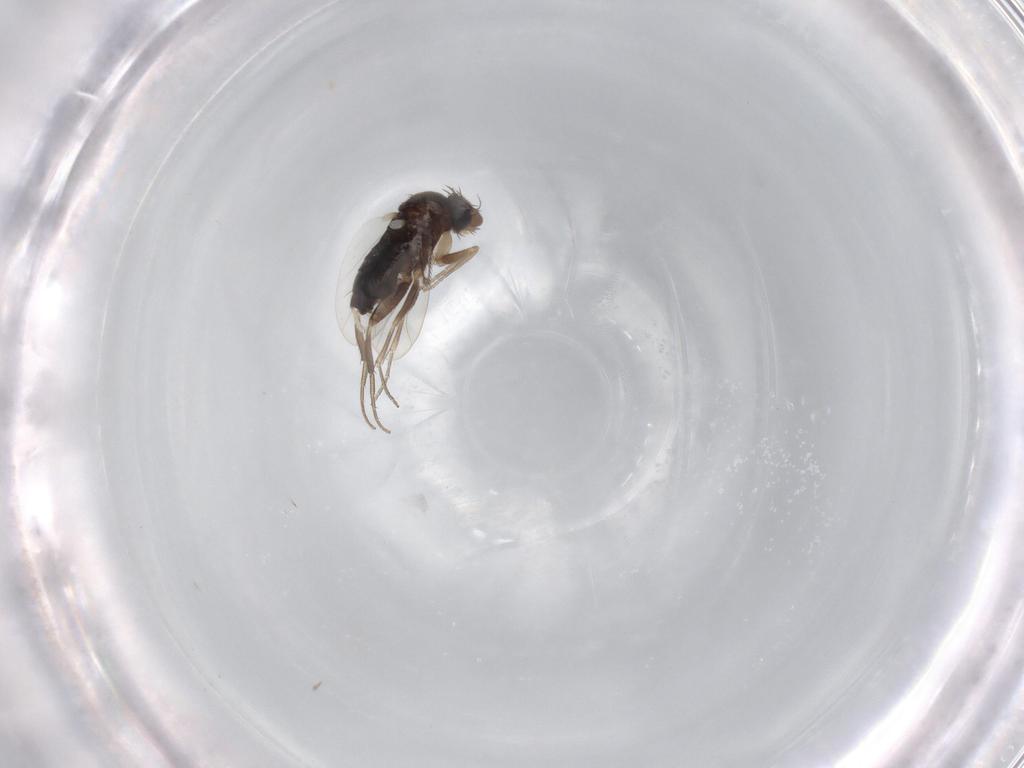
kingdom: Animalia
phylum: Arthropoda
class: Insecta
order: Diptera
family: Phoridae
